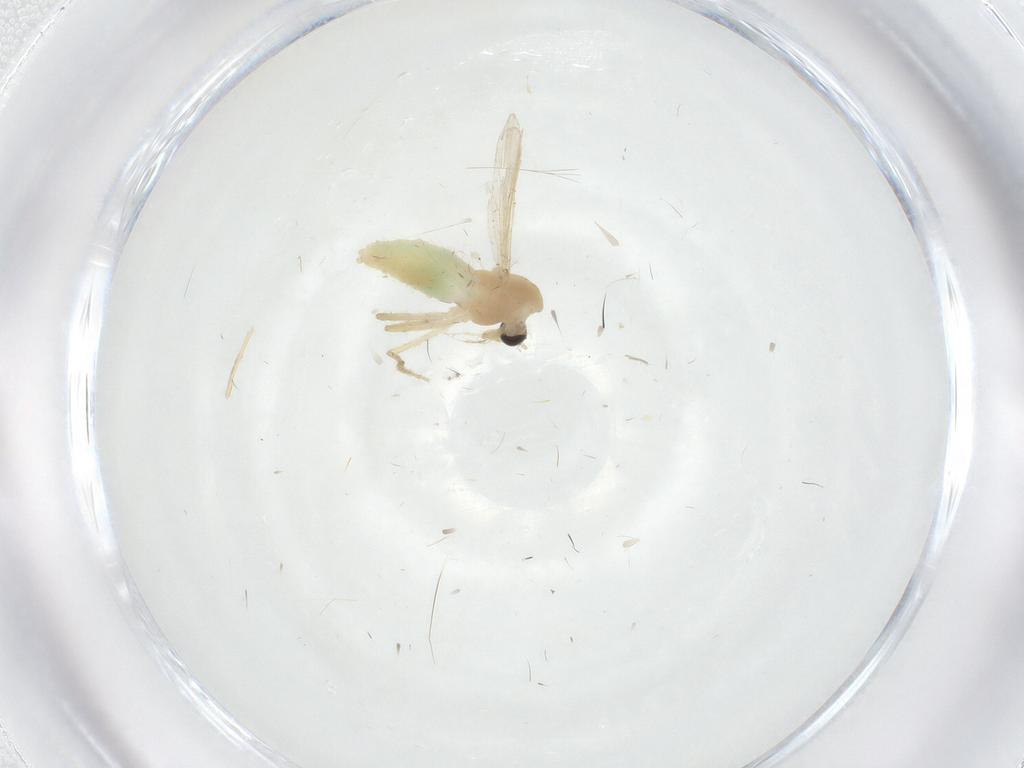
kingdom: Animalia
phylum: Arthropoda
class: Insecta
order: Diptera
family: Chironomidae
